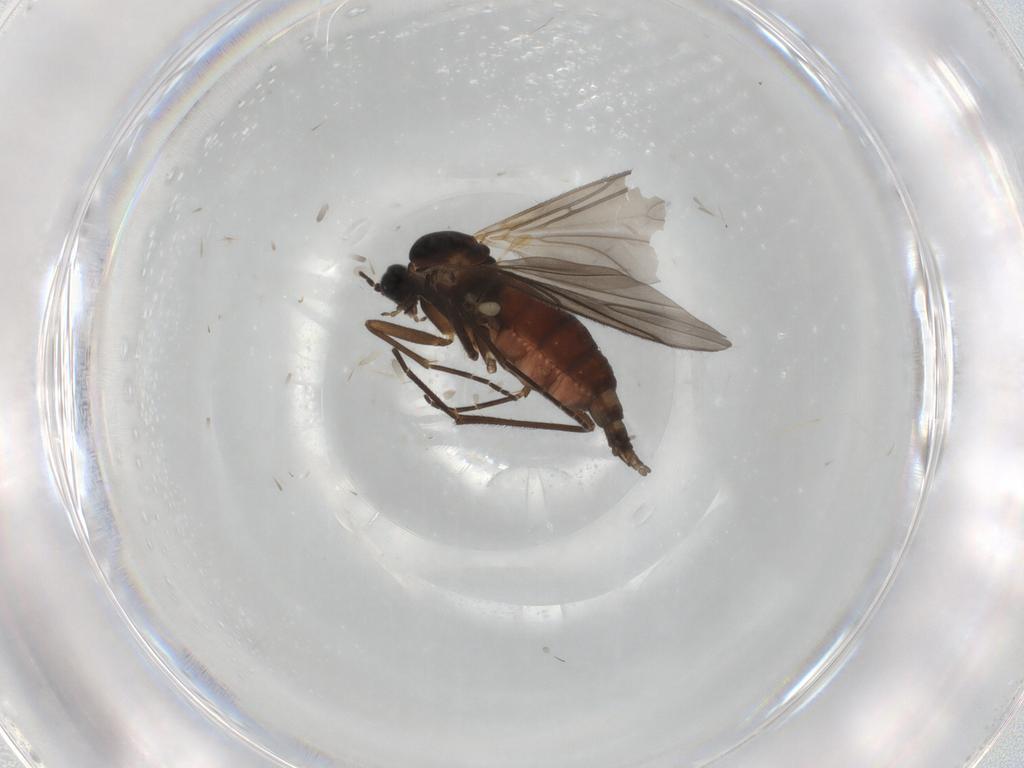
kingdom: Animalia
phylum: Arthropoda
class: Insecta
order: Diptera
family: Sciaridae
